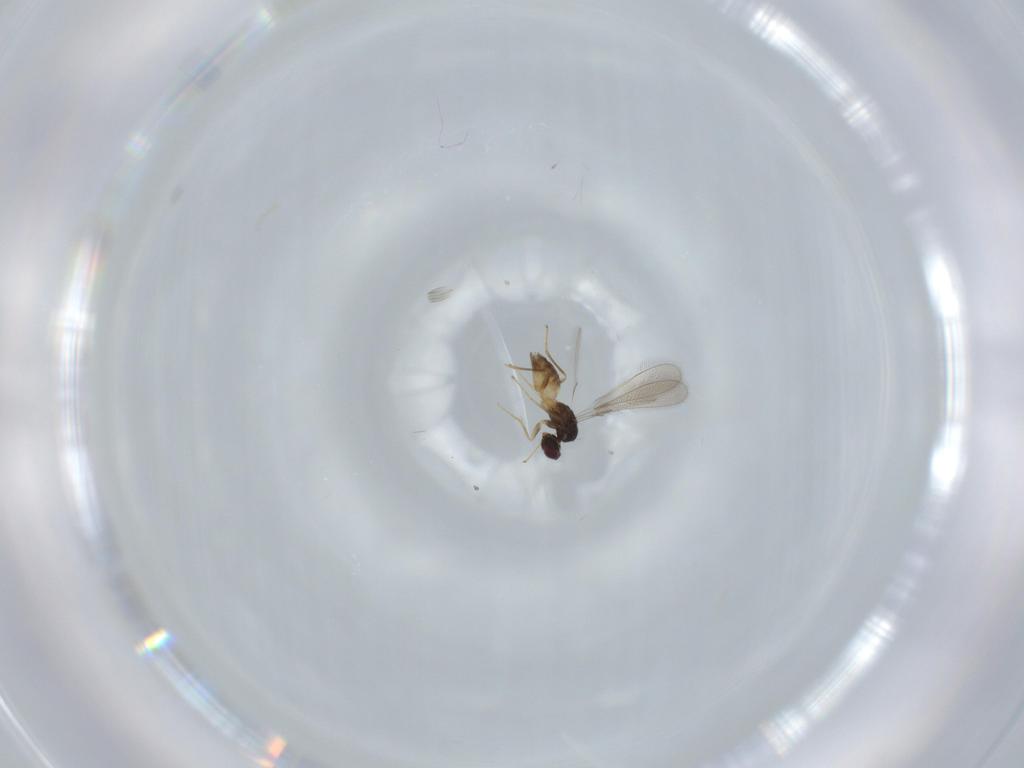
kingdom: Animalia
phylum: Arthropoda
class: Insecta
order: Hymenoptera
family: Mymaridae
